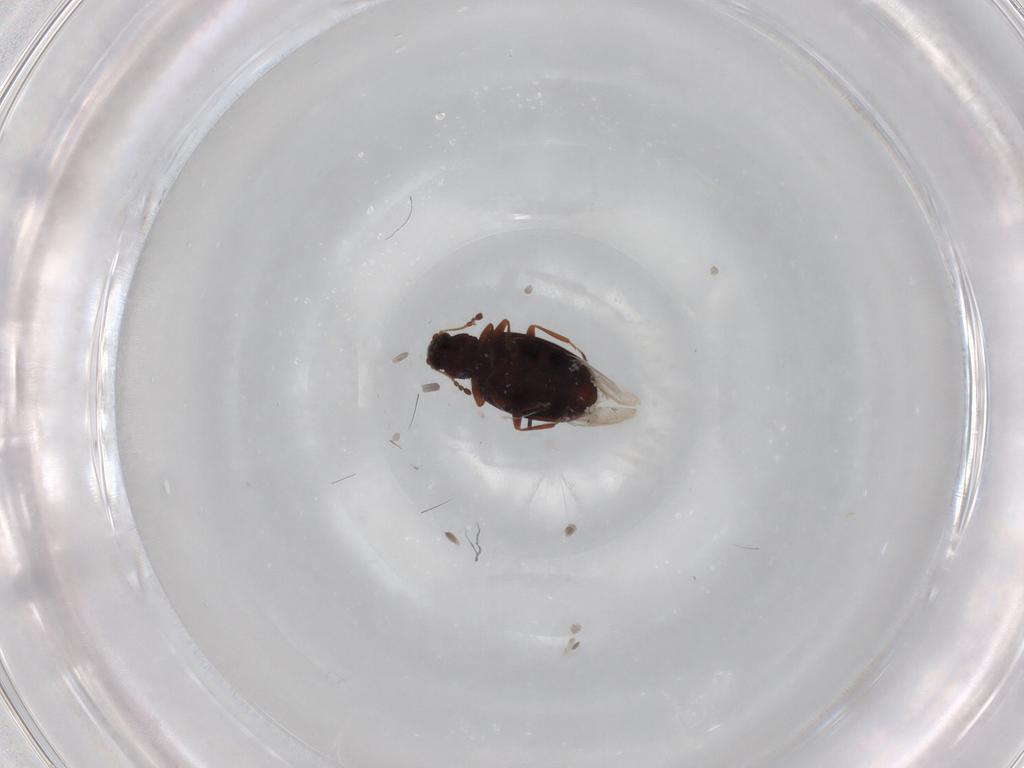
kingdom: Animalia
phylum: Arthropoda
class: Insecta
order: Coleoptera
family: Latridiidae
